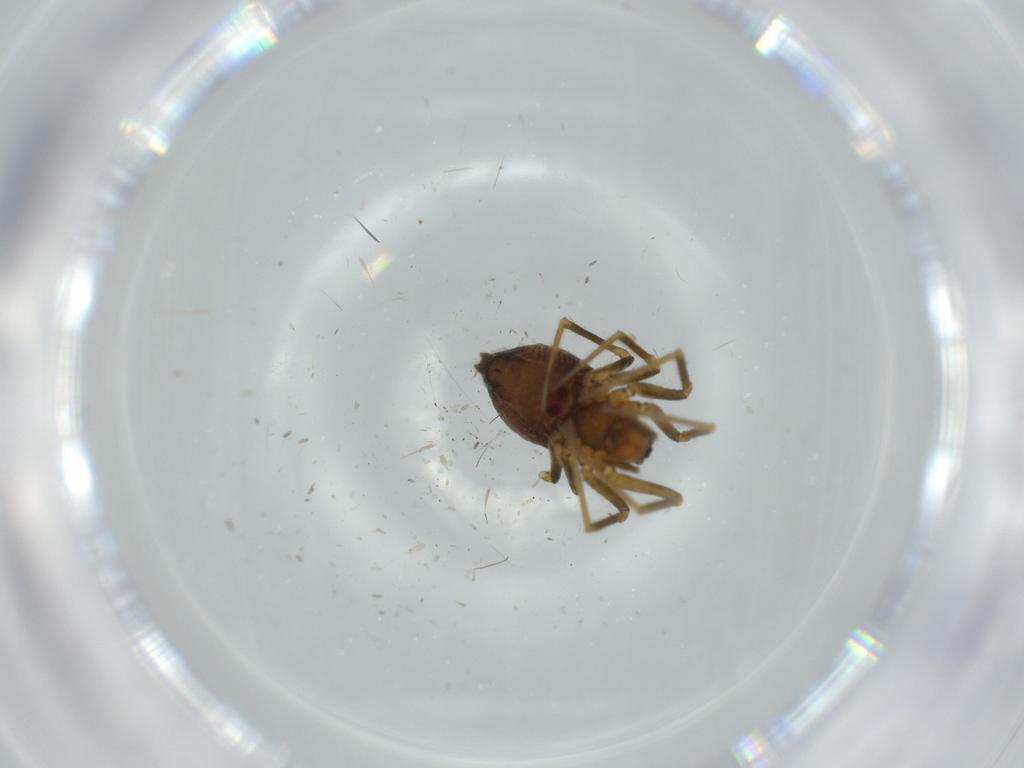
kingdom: Animalia
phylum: Arthropoda
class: Arachnida
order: Araneae
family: Linyphiidae
